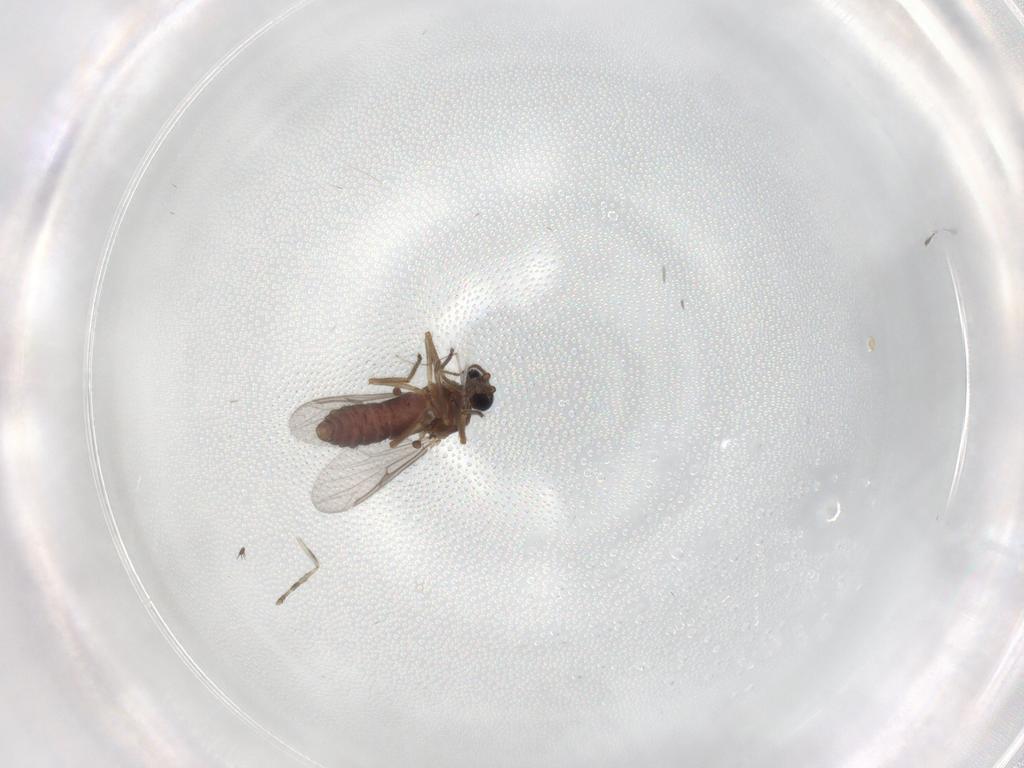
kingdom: Animalia
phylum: Arthropoda
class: Insecta
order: Diptera
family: Ceratopogonidae
